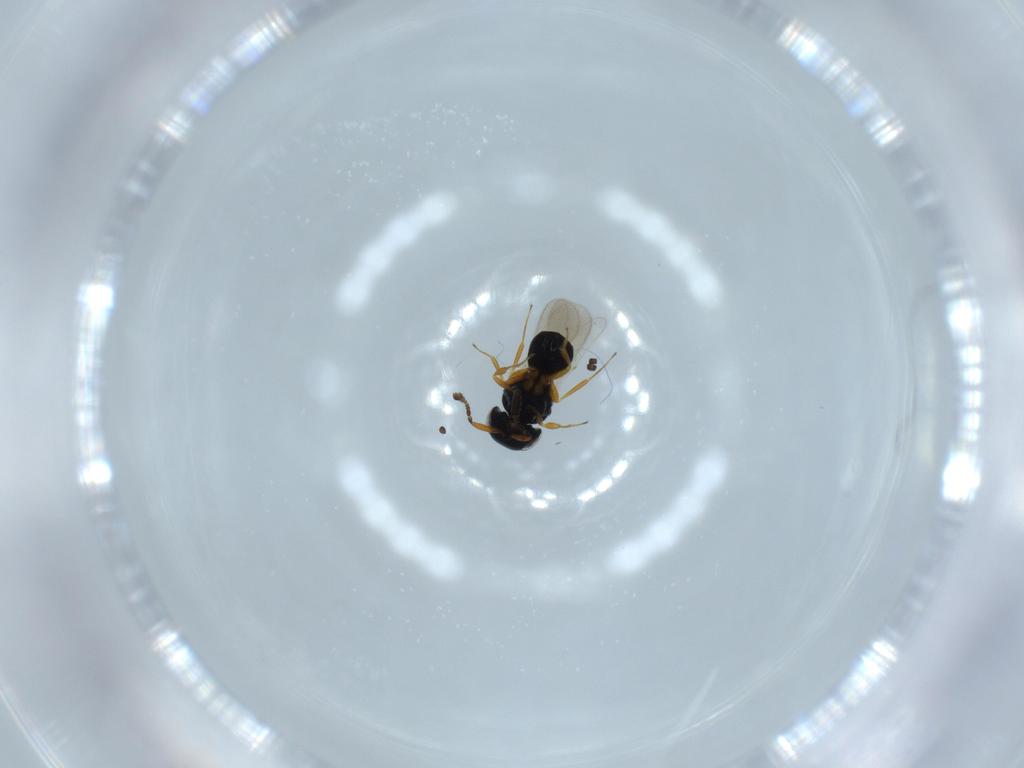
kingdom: Animalia
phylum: Arthropoda
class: Insecta
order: Hymenoptera
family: Scelionidae
